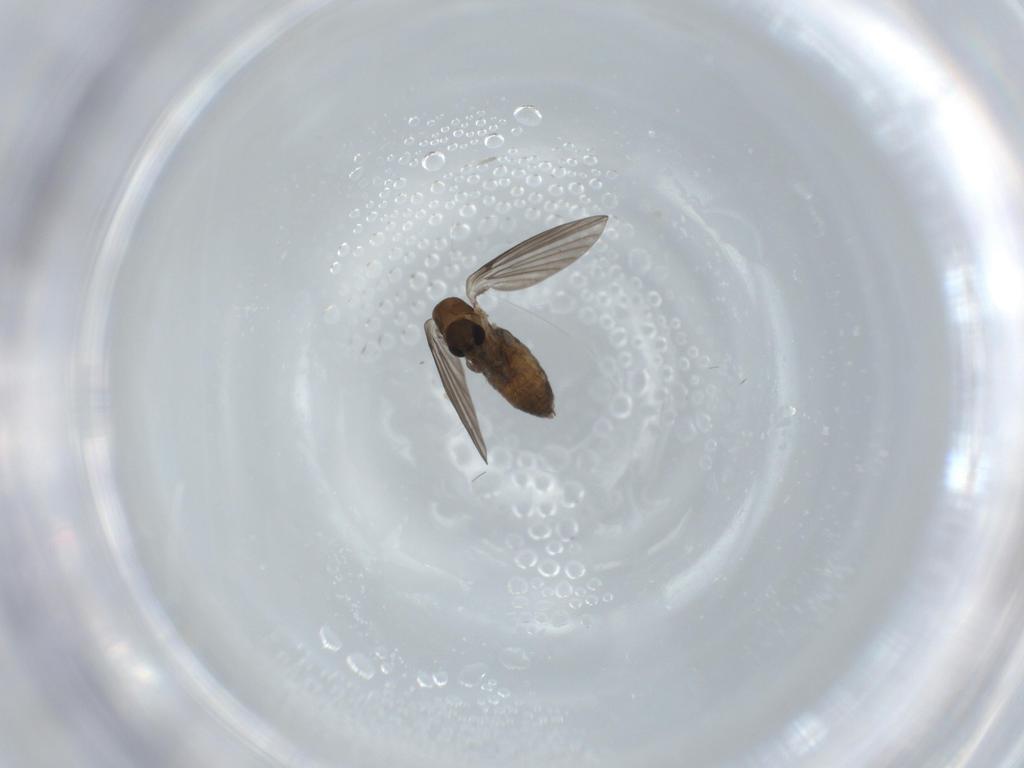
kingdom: Animalia
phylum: Arthropoda
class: Insecta
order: Diptera
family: Psychodidae
